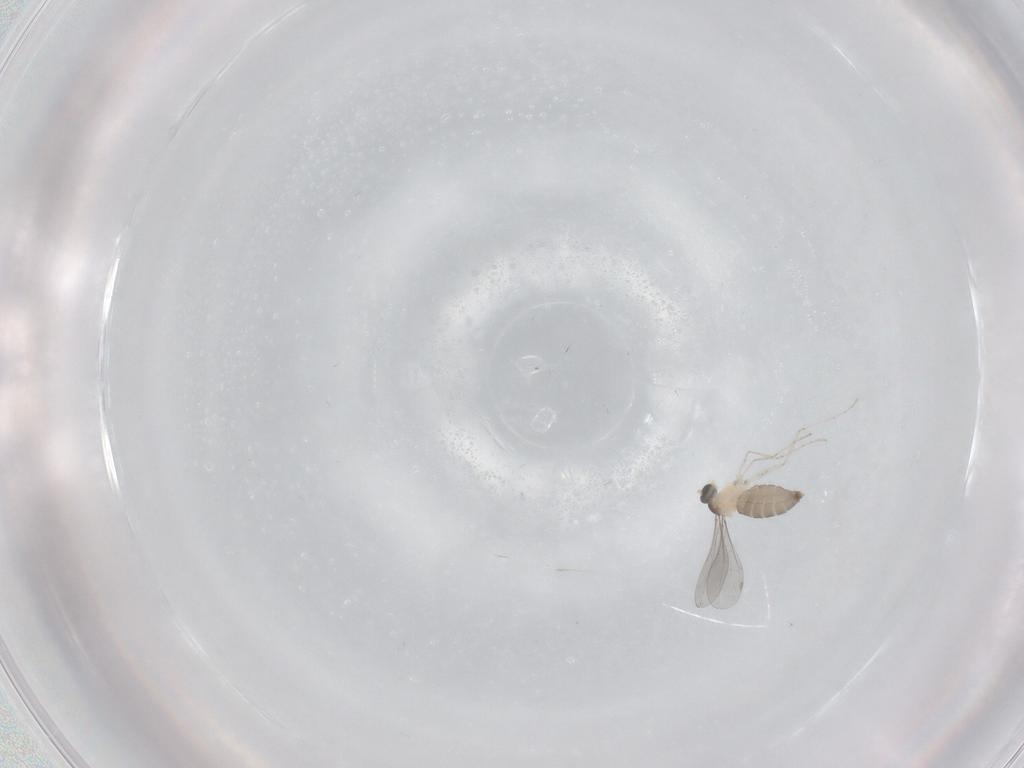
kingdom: Animalia
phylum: Arthropoda
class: Insecta
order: Diptera
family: Cecidomyiidae
